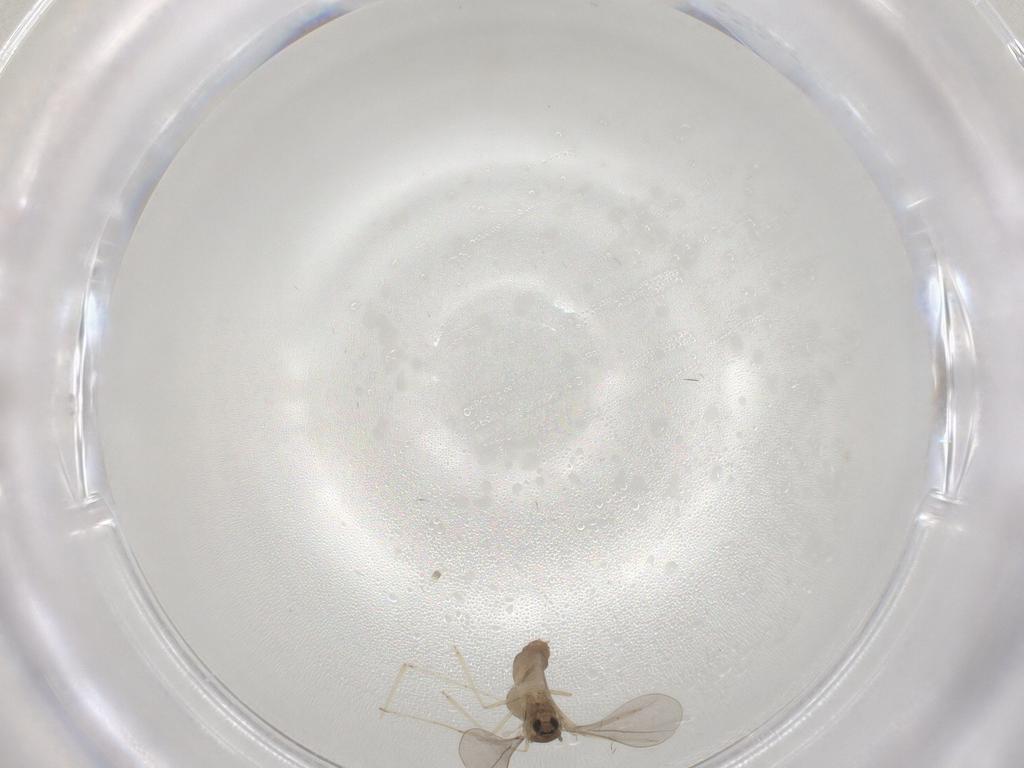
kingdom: Animalia
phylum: Arthropoda
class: Insecta
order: Diptera
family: Cecidomyiidae
